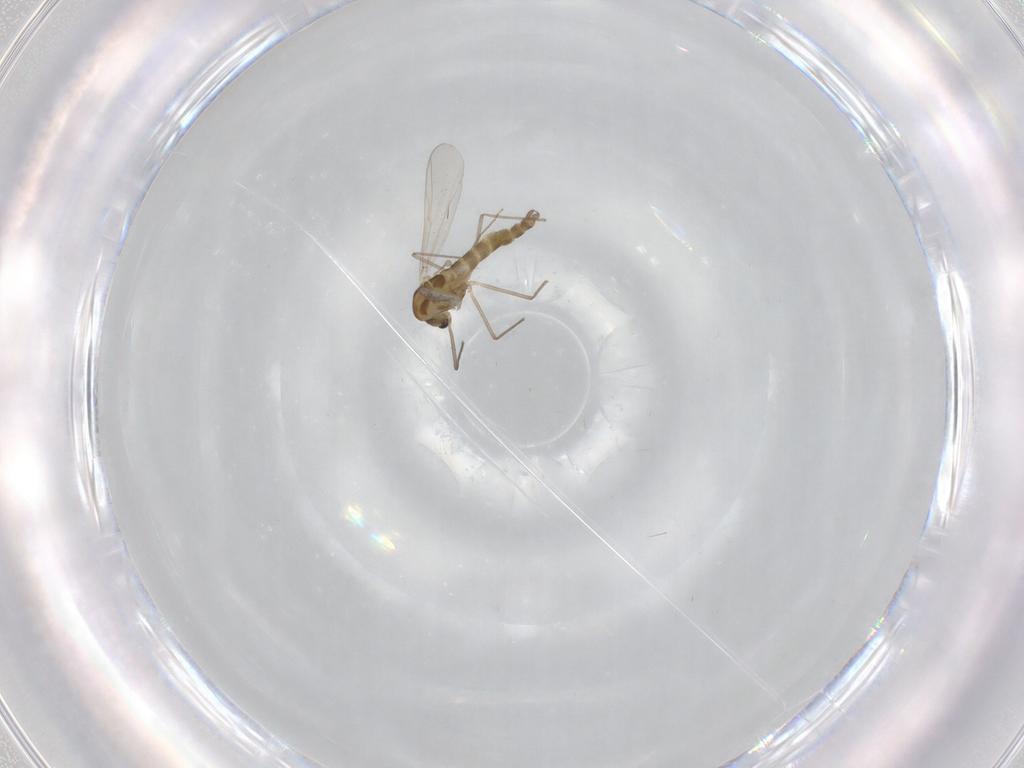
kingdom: Animalia
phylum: Arthropoda
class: Insecta
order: Diptera
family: Chironomidae
